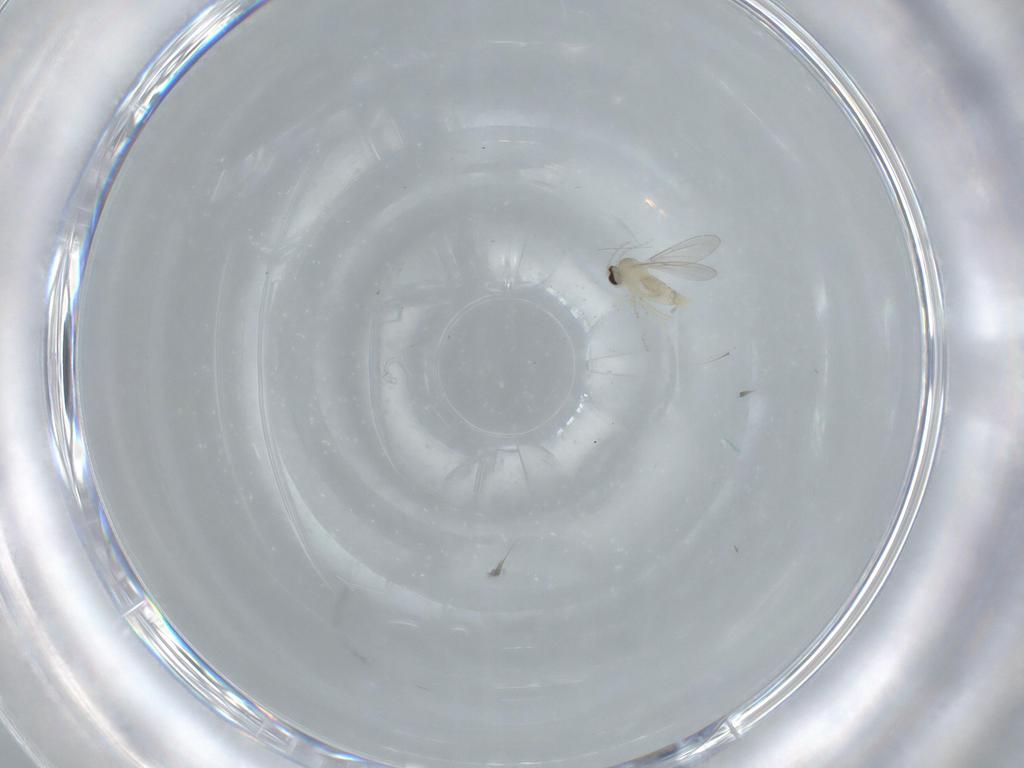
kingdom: Animalia
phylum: Arthropoda
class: Insecta
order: Diptera
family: Cecidomyiidae
